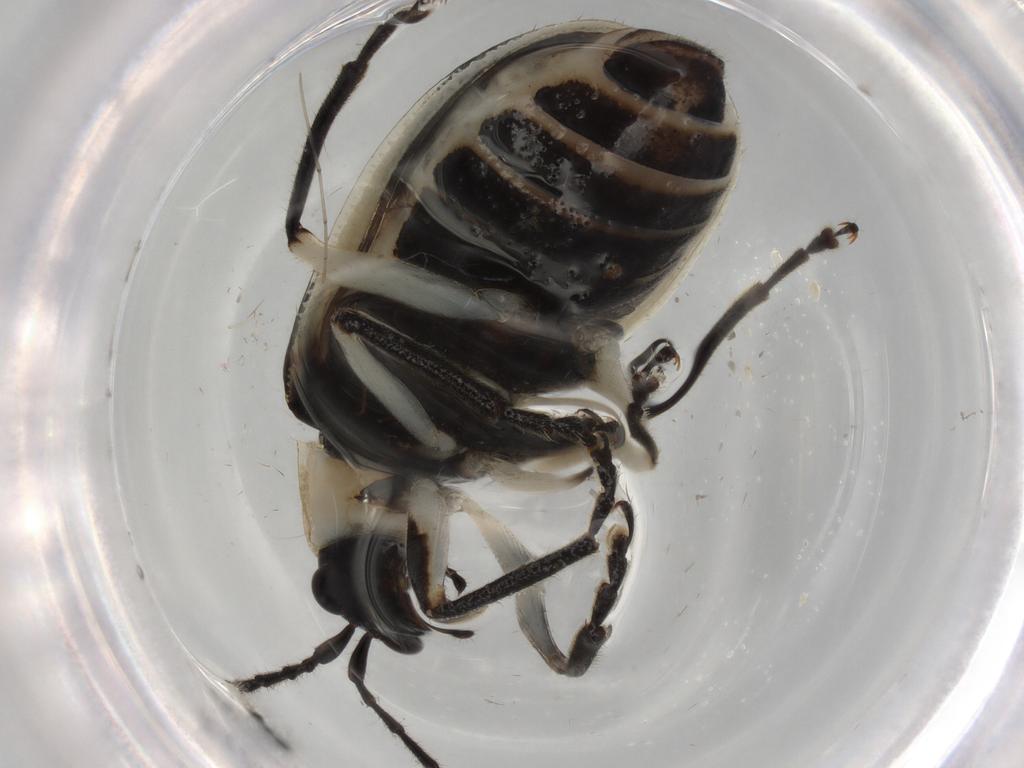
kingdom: Animalia
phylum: Arthropoda
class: Insecta
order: Coleoptera
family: Chrysomelidae
